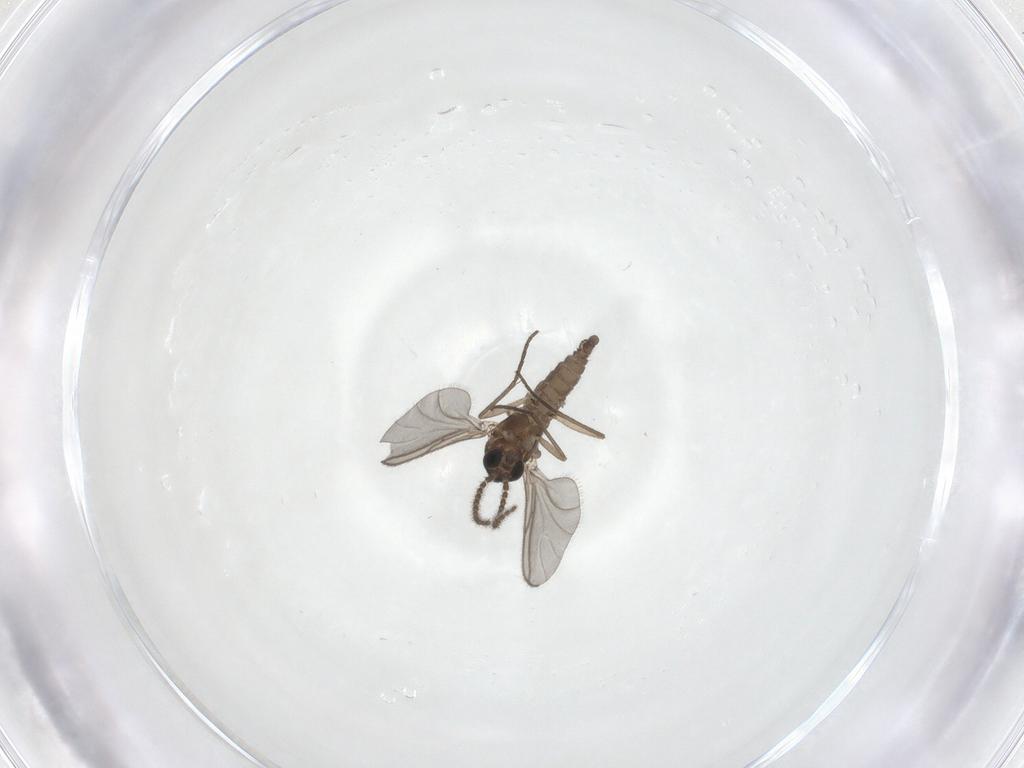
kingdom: Animalia
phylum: Arthropoda
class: Insecta
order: Diptera
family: Sciaridae
